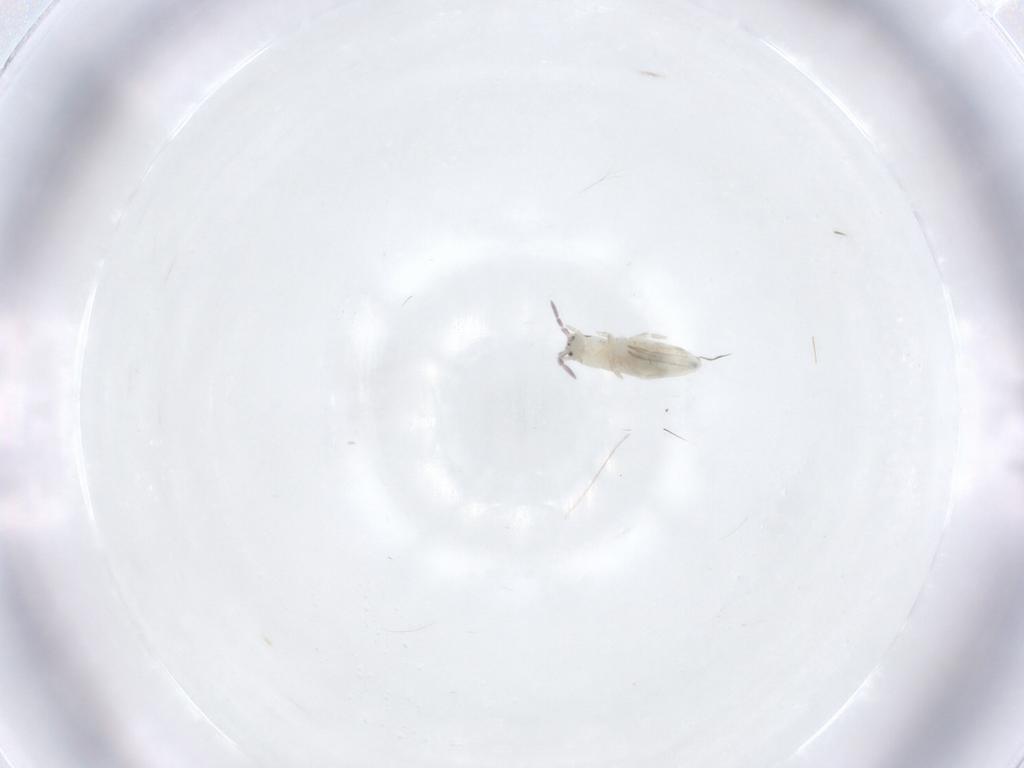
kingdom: Animalia
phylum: Arthropoda
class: Collembola
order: Entomobryomorpha
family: Entomobryidae
